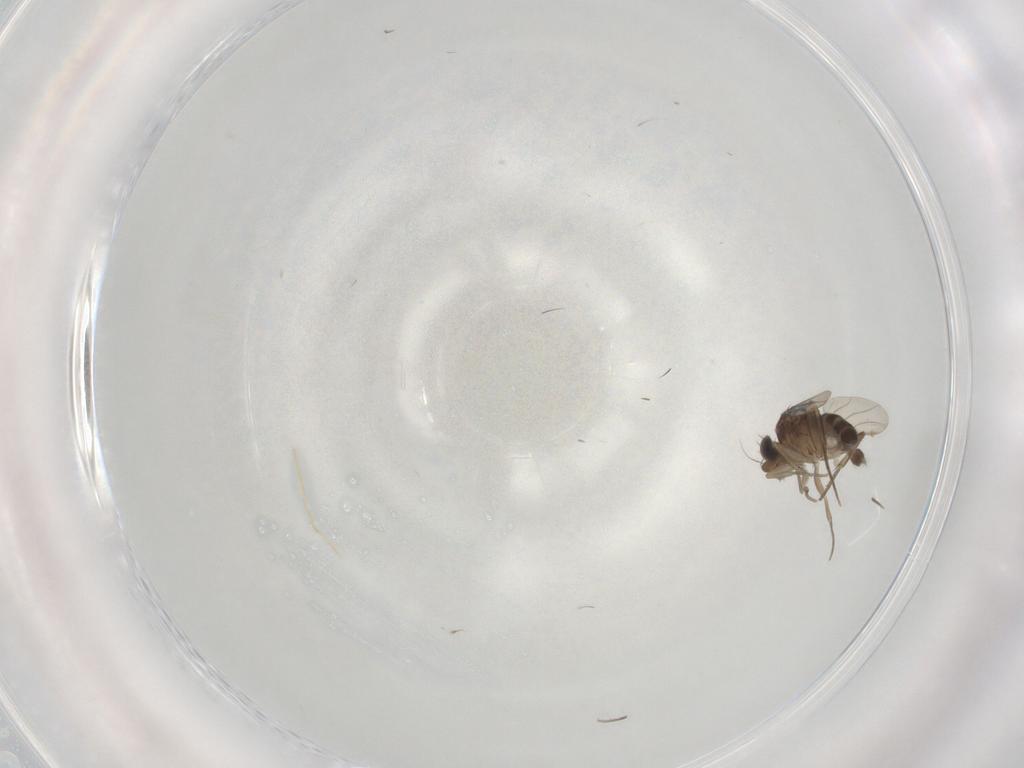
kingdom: Animalia
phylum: Arthropoda
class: Insecta
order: Diptera
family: Phoridae
